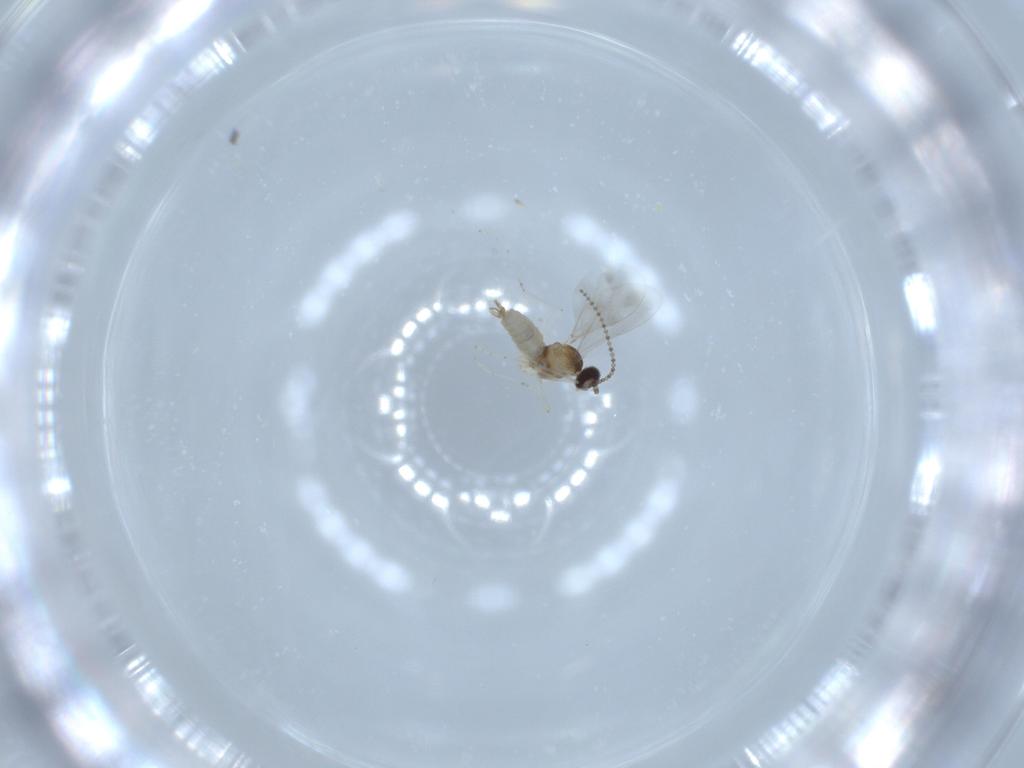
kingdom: Animalia
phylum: Arthropoda
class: Insecta
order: Diptera
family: Cecidomyiidae
